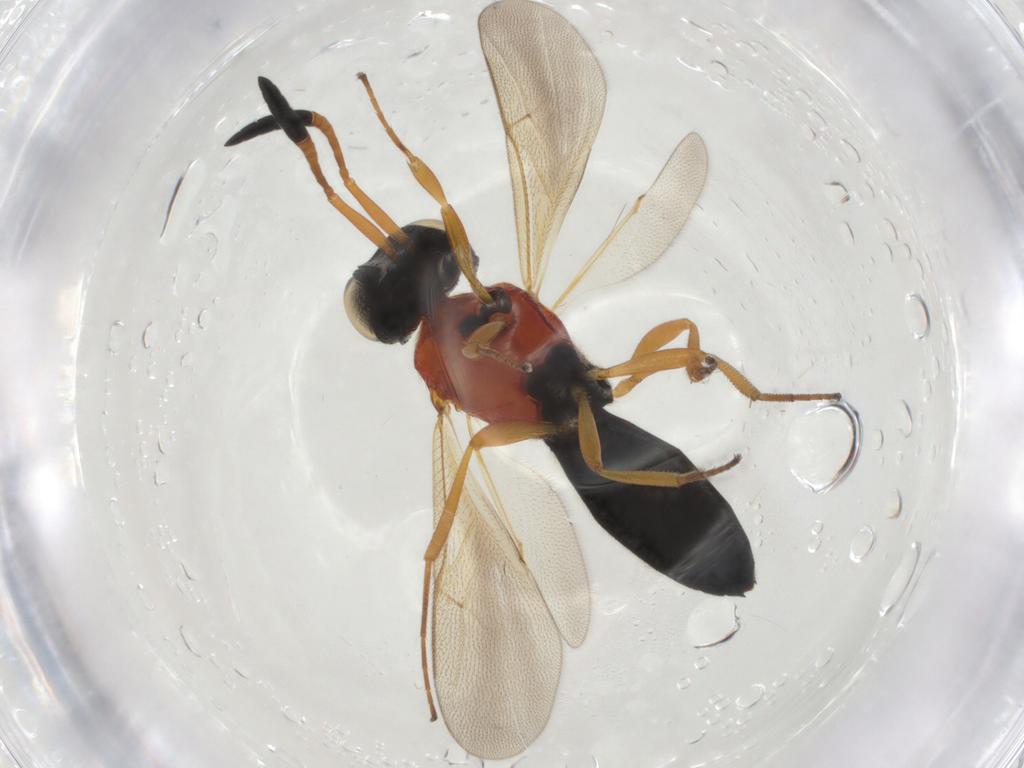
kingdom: Animalia
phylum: Arthropoda
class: Insecta
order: Hymenoptera
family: Scelionidae
